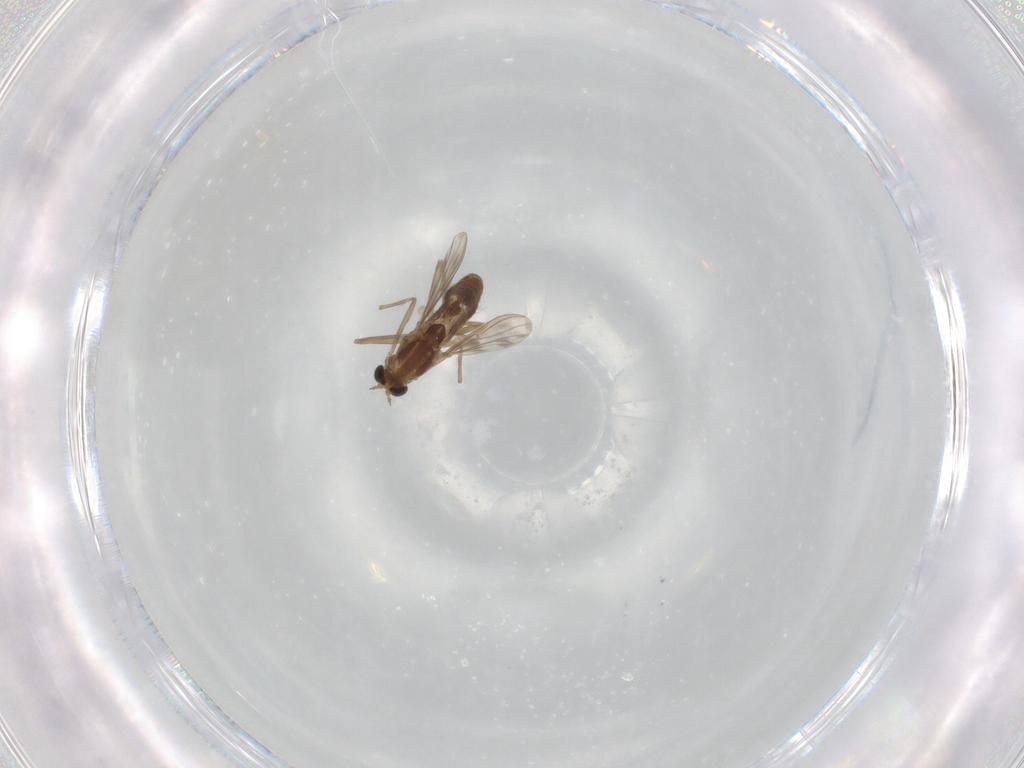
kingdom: Animalia
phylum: Arthropoda
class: Insecta
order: Diptera
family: Chironomidae
